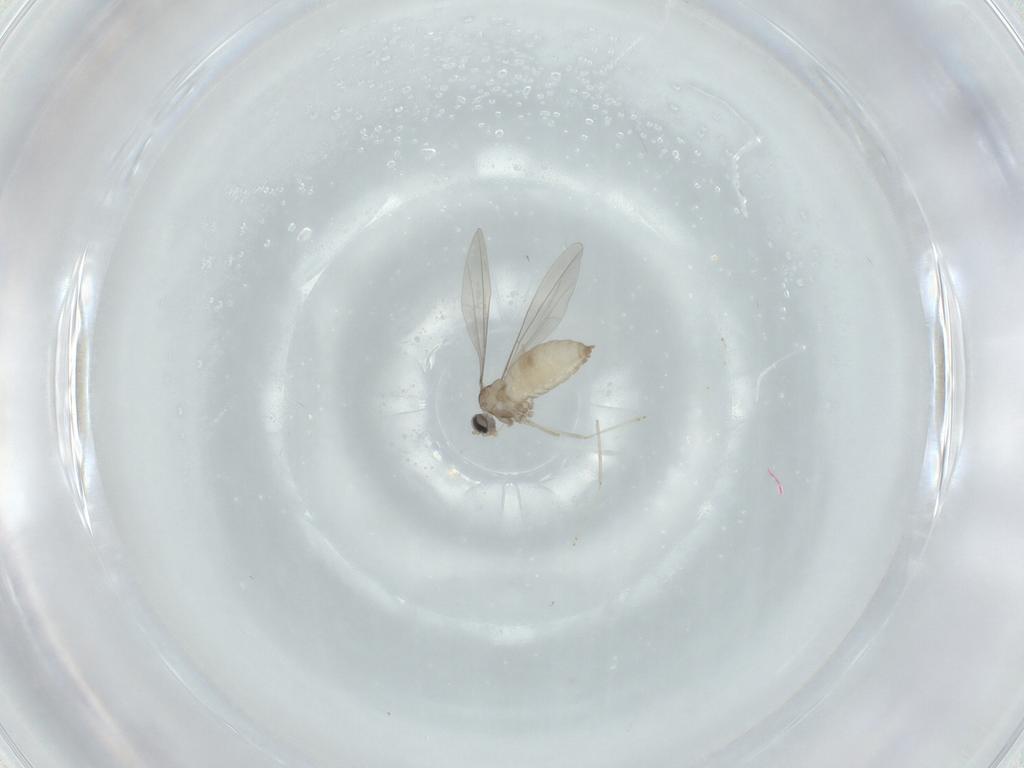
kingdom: Animalia
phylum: Arthropoda
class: Insecta
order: Diptera
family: Cecidomyiidae
